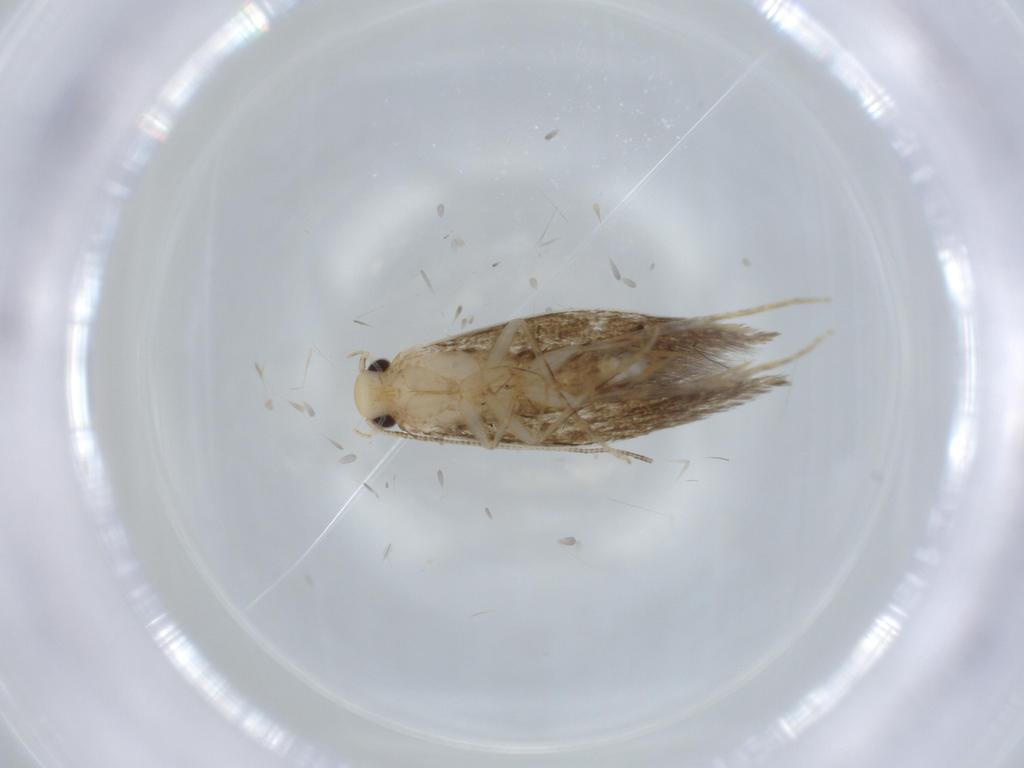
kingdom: Animalia
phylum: Arthropoda
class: Insecta
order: Lepidoptera
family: Tineidae
